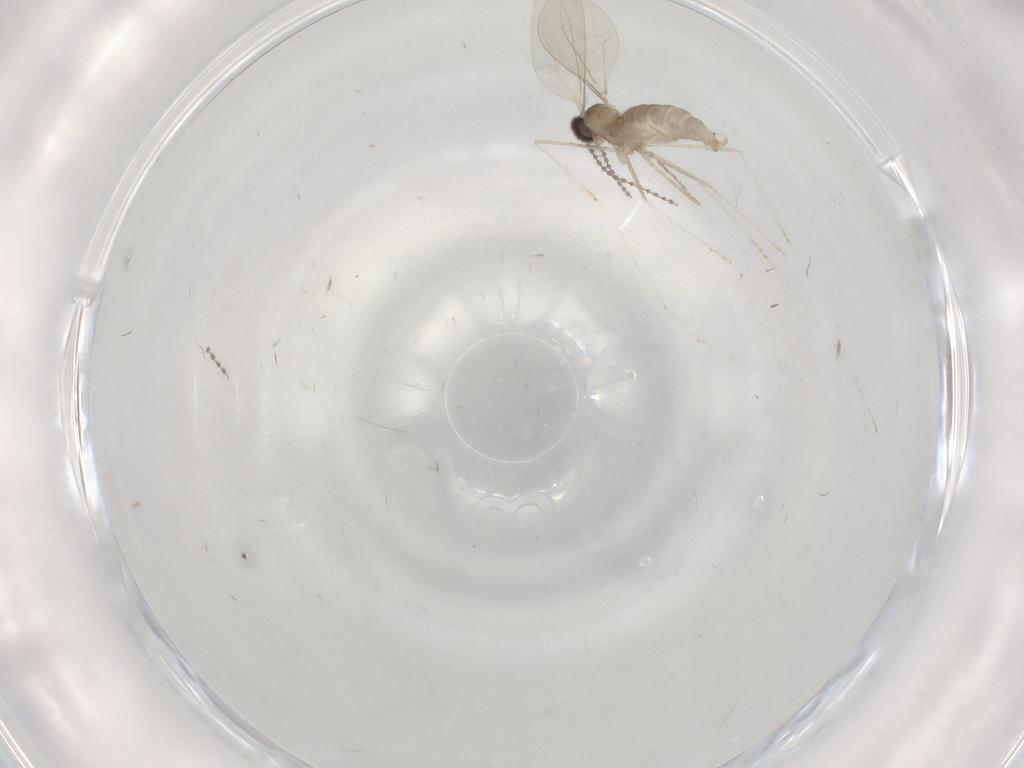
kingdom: Animalia
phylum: Arthropoda
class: Insecta
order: Diptera
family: Cecidomyiidae
